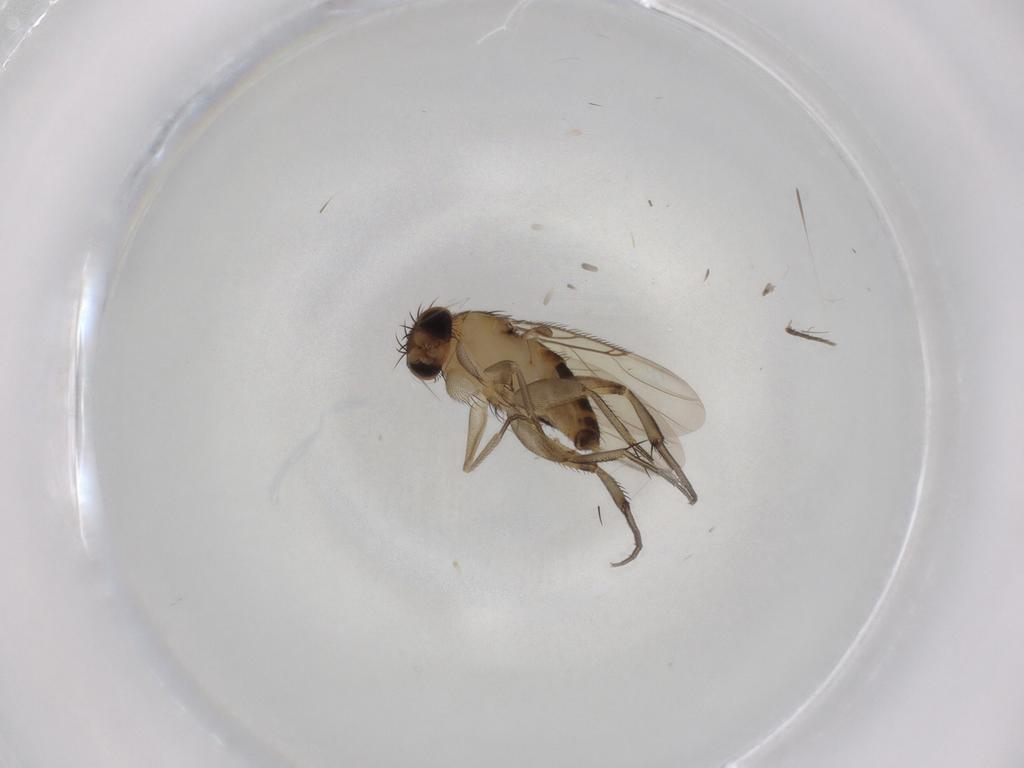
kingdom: Animalia
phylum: Arthropoda
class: Insecta
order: Diptera
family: Phoridae
